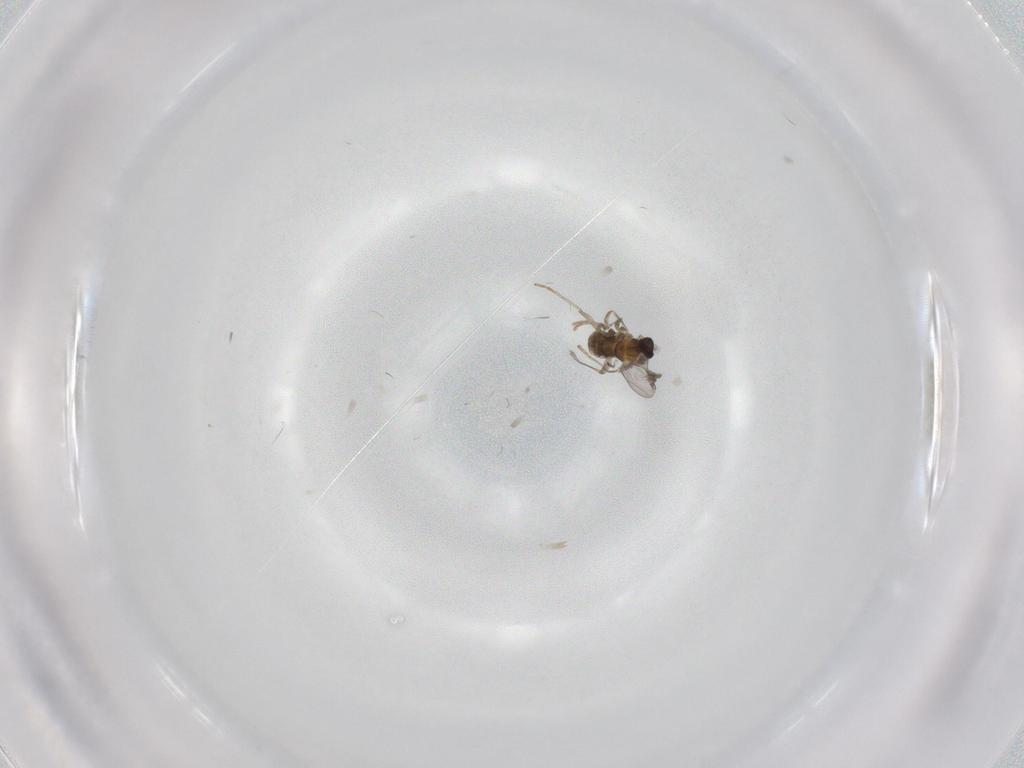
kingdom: Animalia
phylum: Arthropoda
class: Insecta
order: Diptera
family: Cecidomyiidae
